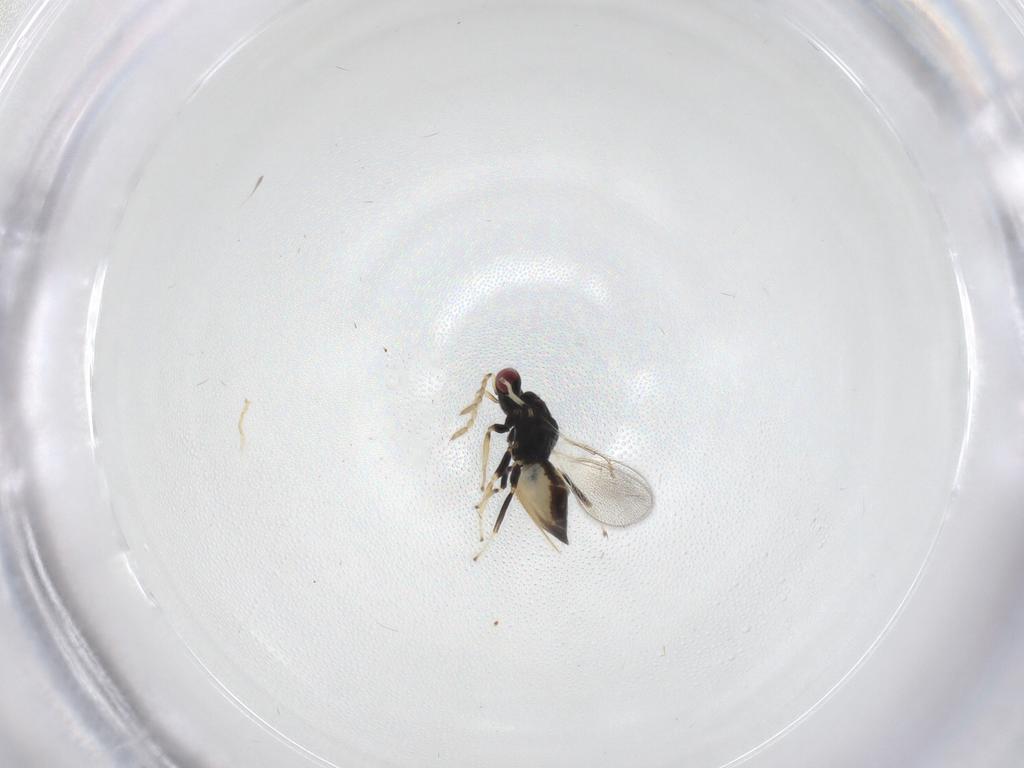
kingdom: Animalia
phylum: Arthropoda
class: Insecta
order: Hymenoptera
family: Eulophidae
